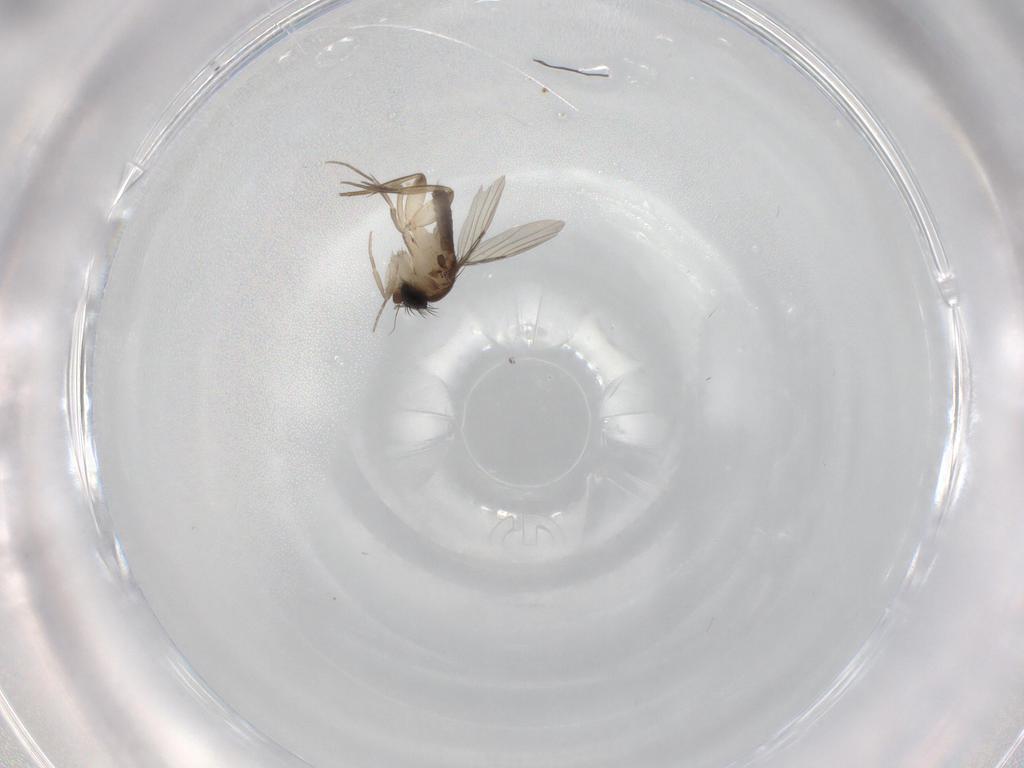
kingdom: Animalia
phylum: Arthropoda
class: Insecta
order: Diptera
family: Phoridae
